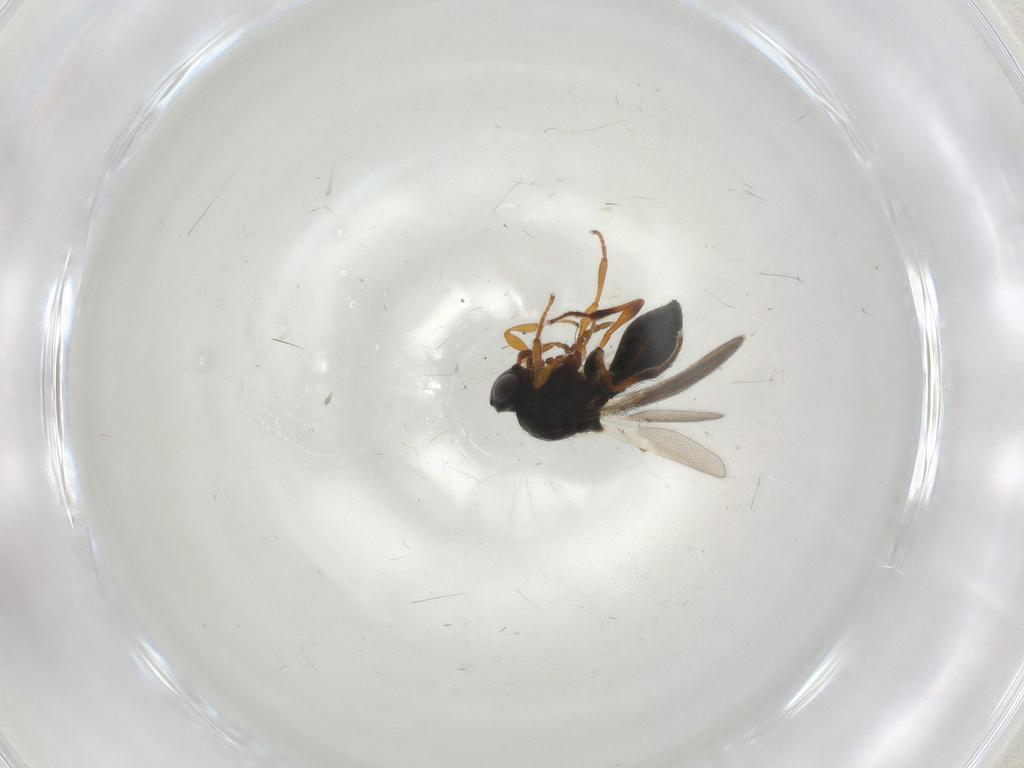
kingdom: Animalia
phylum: Arthropoda
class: Insecta
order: Hymenoptera
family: Platygastridae
